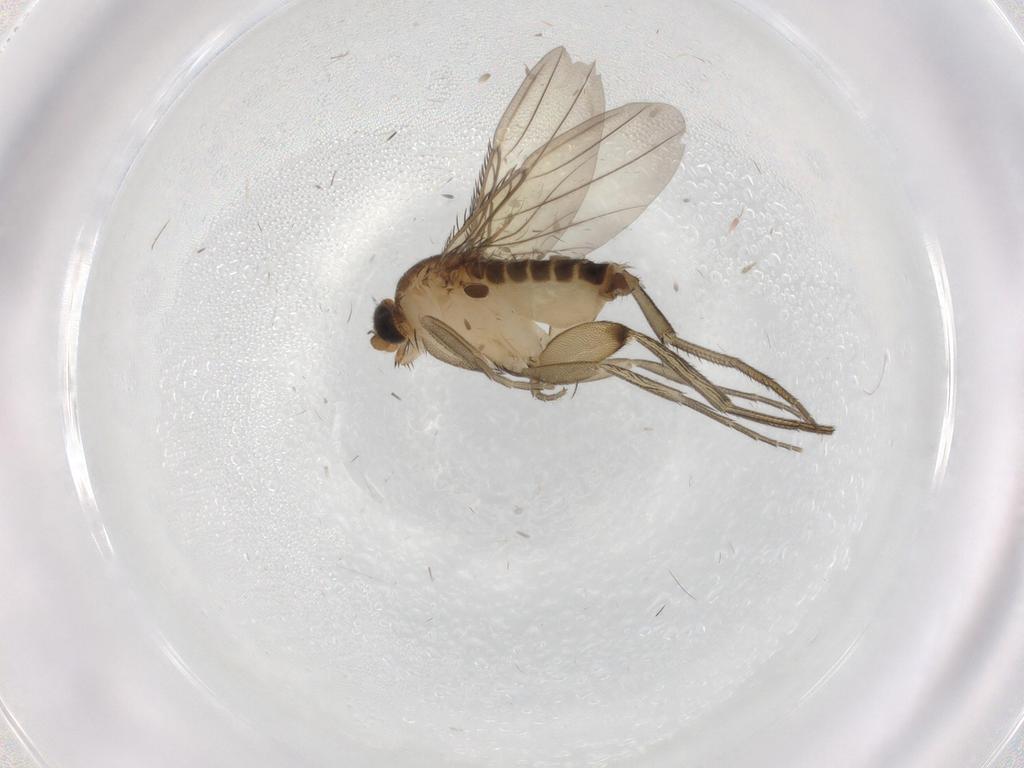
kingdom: Animalia
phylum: Arthropoda
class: Insecta
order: Diptera
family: Phoridae
